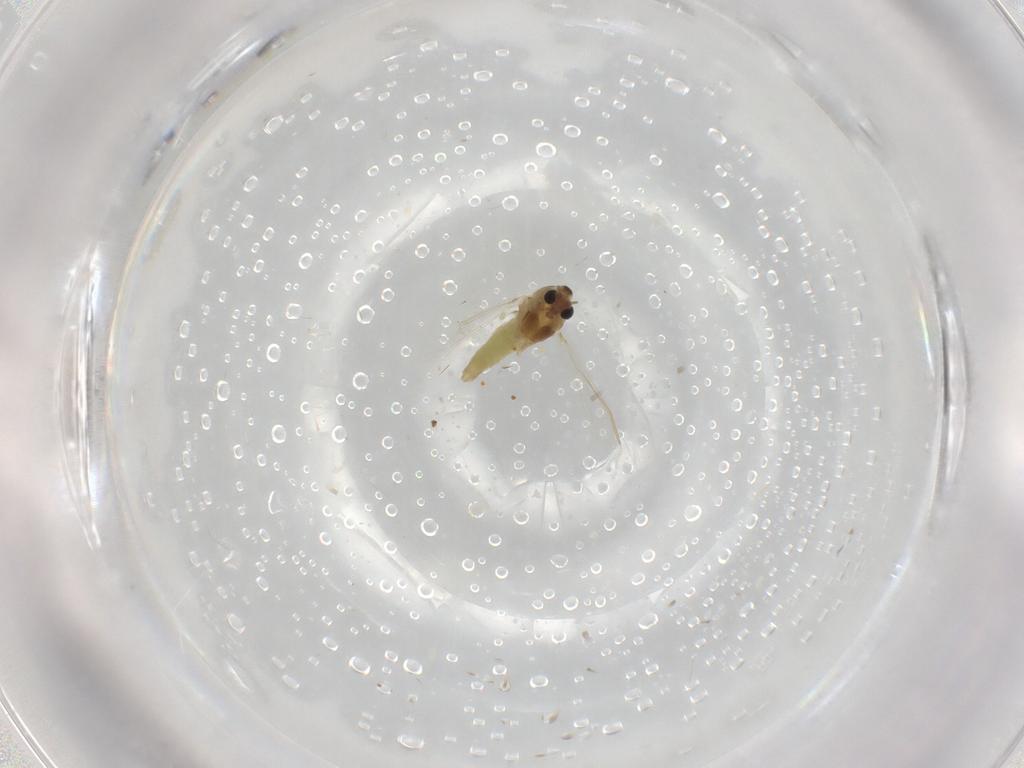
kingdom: Animalia
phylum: Arthropoda
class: Insecta
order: Diptera
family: Chironomidae
